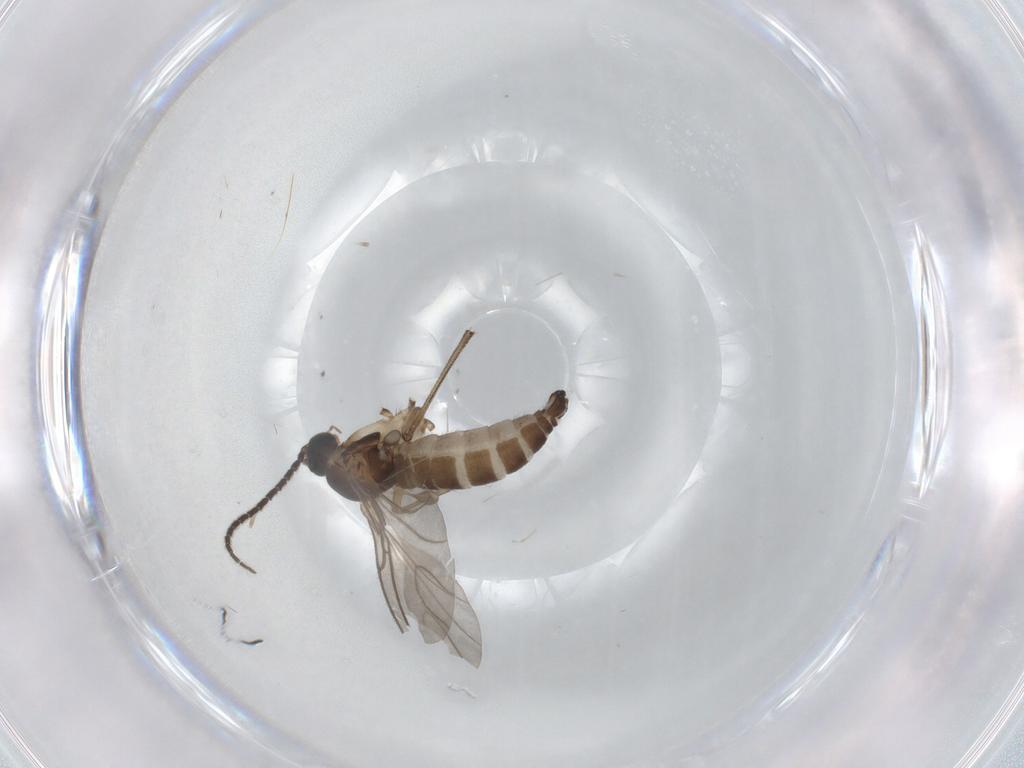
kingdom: Animalia
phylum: Arthropoda
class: Insecta
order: Diptera
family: Sciaridae
